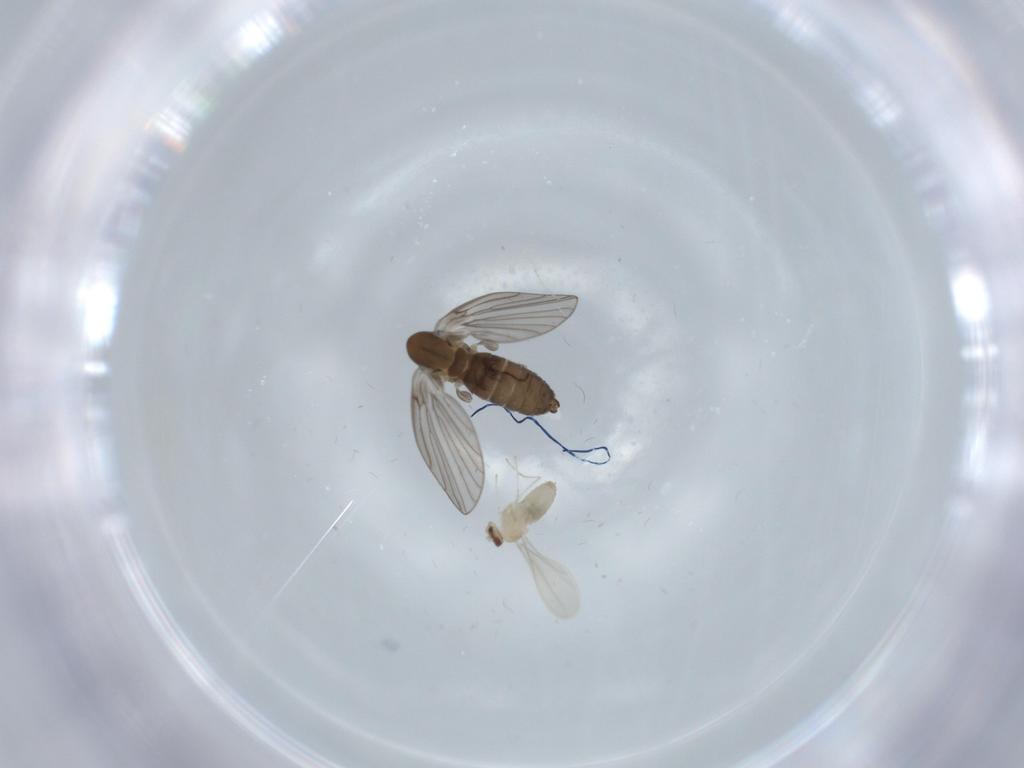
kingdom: Animalia
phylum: Arthropoda
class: Insecta
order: Diptera
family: Psychodidae
